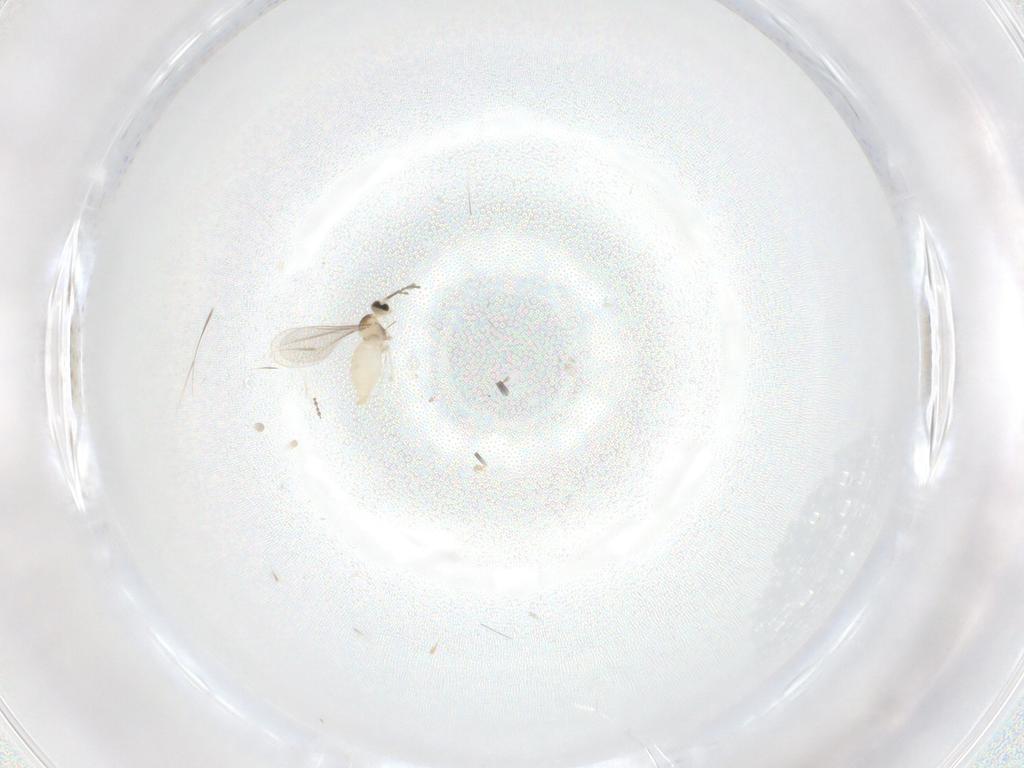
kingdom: Animalia
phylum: Arthropoda
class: Insecta
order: Diptera
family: Cecidomyiidae
